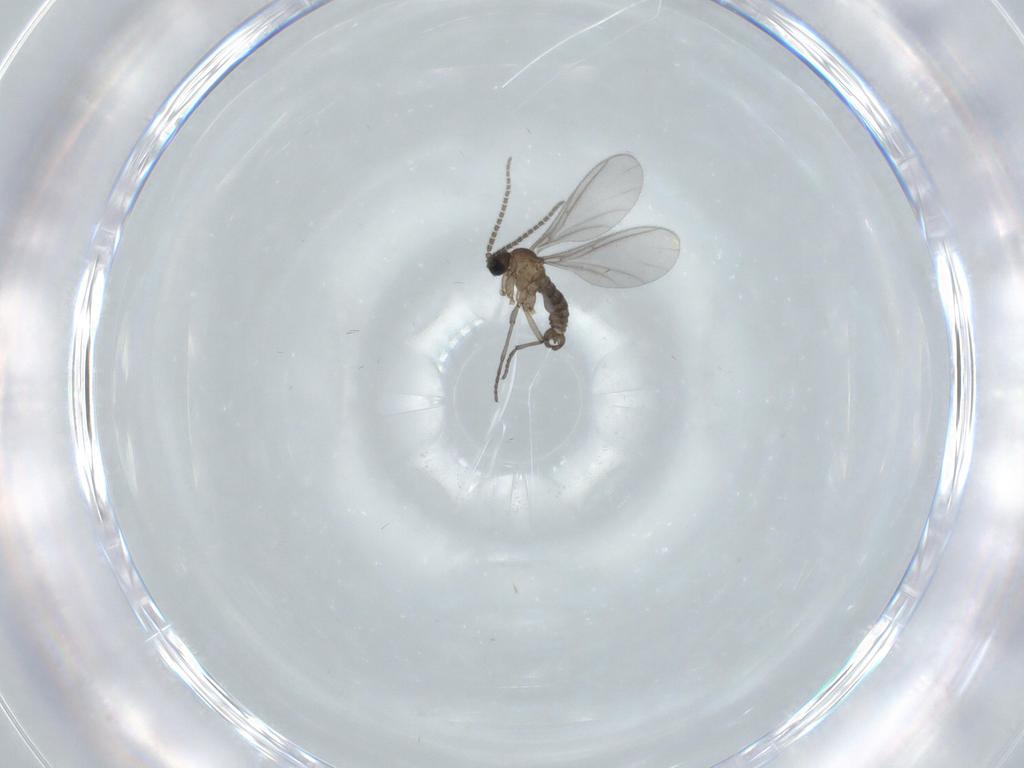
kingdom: Animalia
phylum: Arthropoda
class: Insecta
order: Diptera
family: Sciaridae
